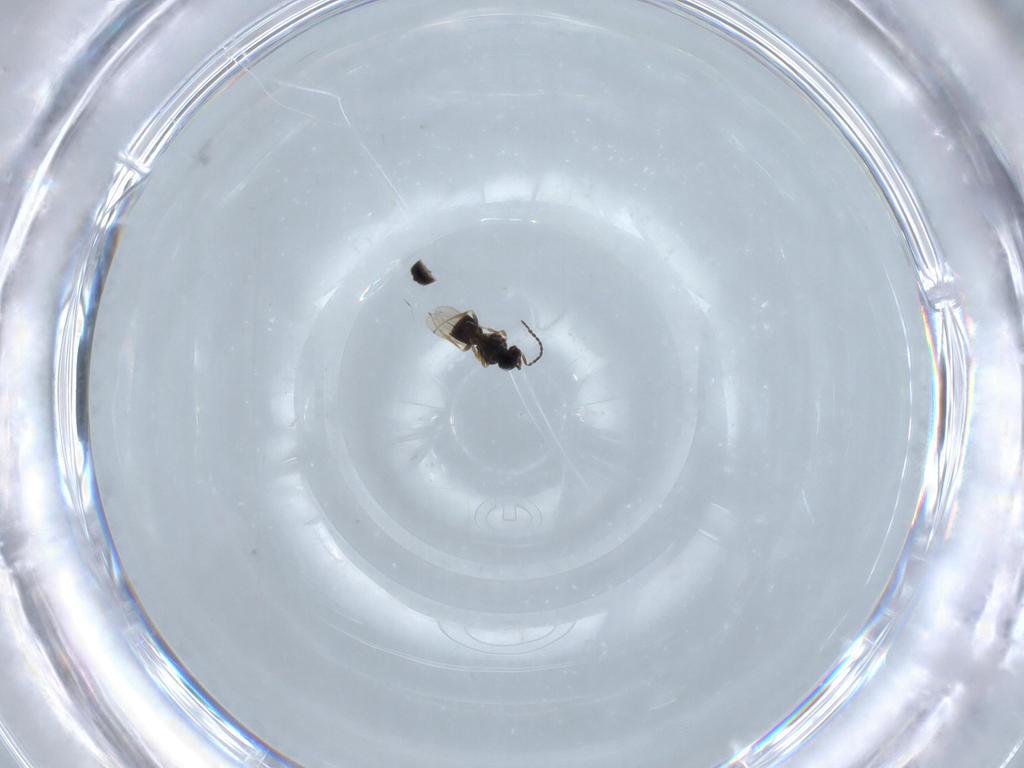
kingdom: Animalia
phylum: Arthropoda
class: Insecta
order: Hymenoptera
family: Scelionidae
